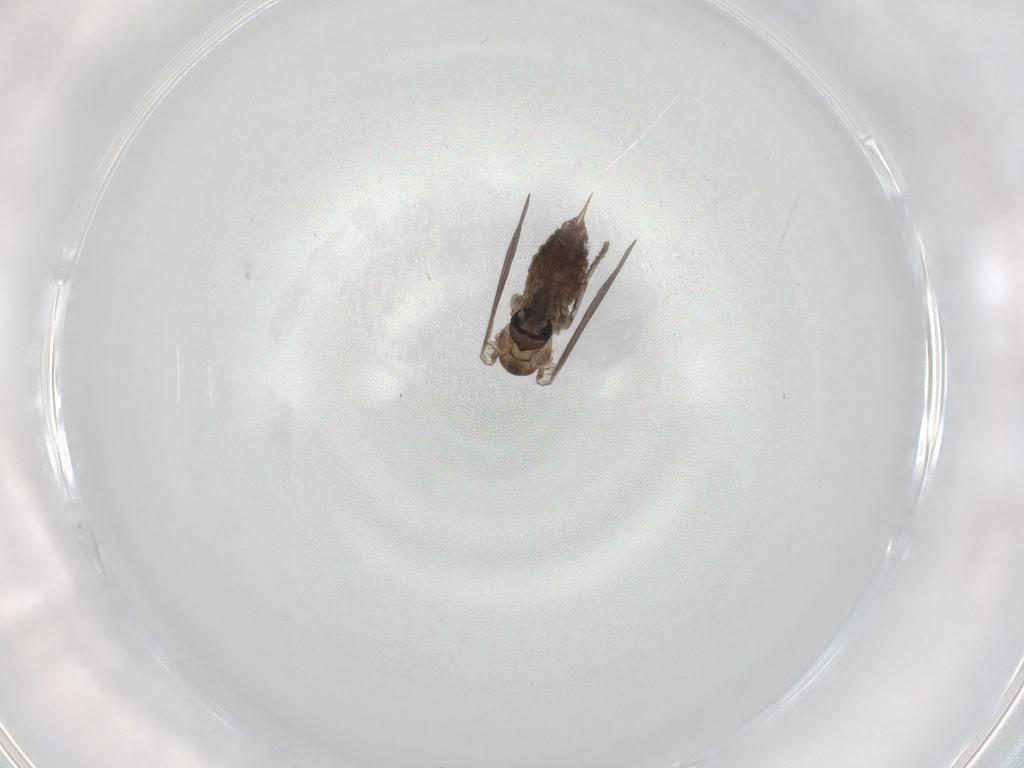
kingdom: Animalia
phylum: Arthropoda
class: Insecta
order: Diptera
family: Psychodidae
